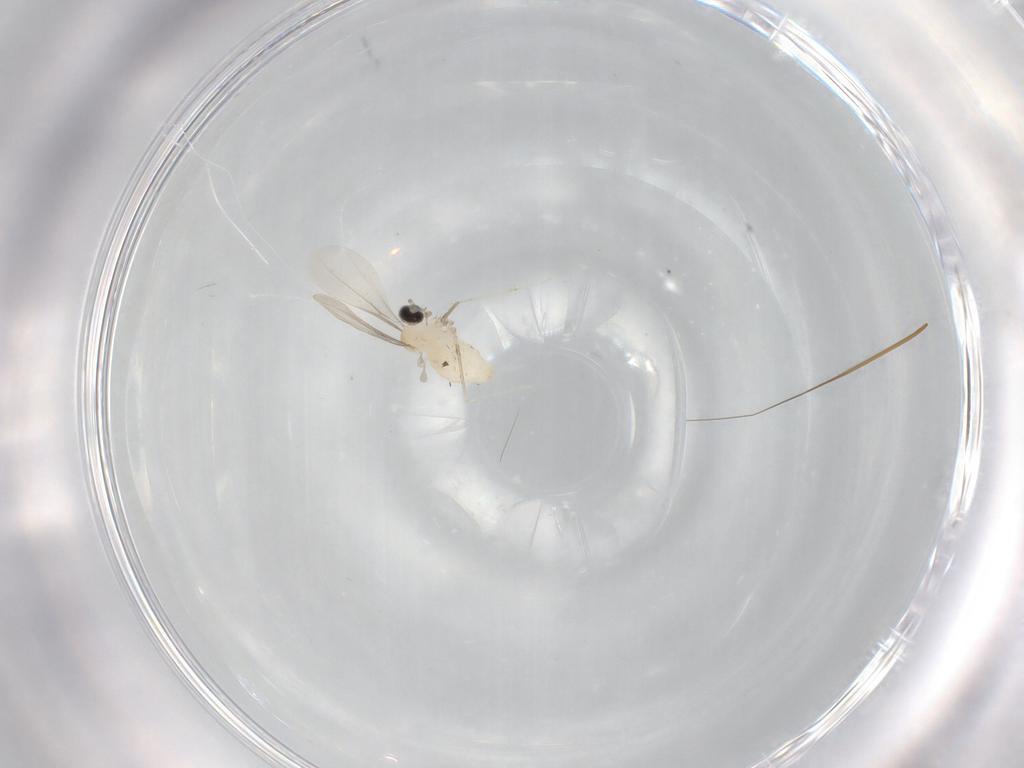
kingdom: Animalia
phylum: Arthropoda
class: Insecta
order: Diptera
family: Cecidomyiidae
